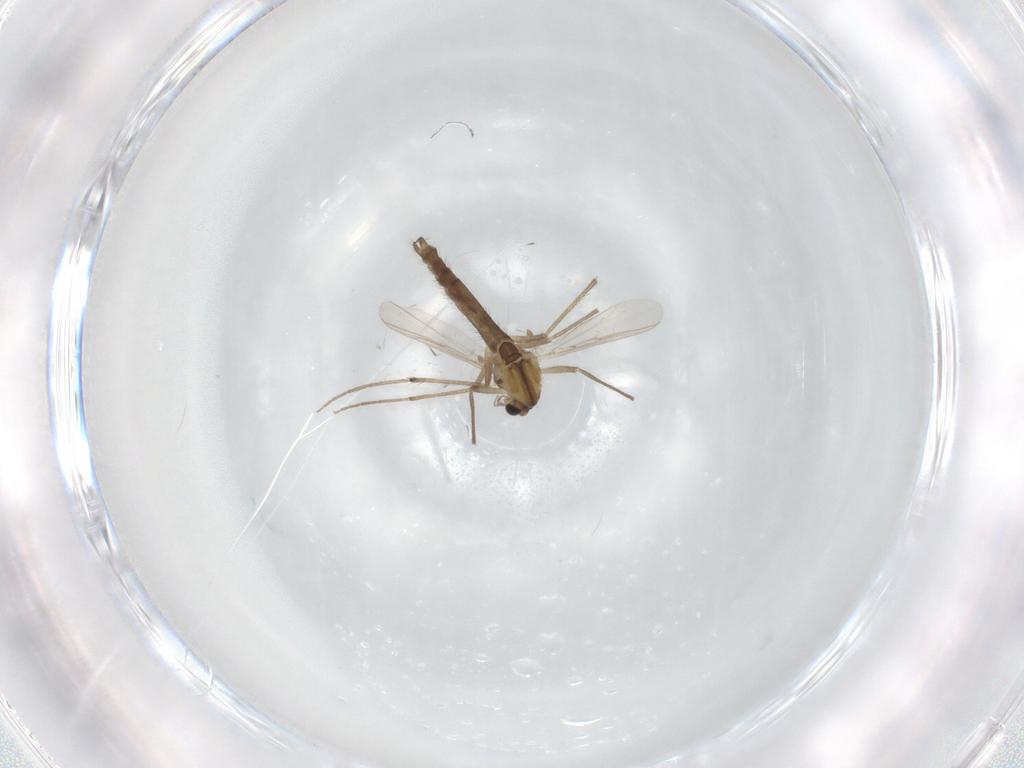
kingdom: Animalia
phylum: Arthropoda
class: Insecta
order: Diptera
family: Chironomidae
